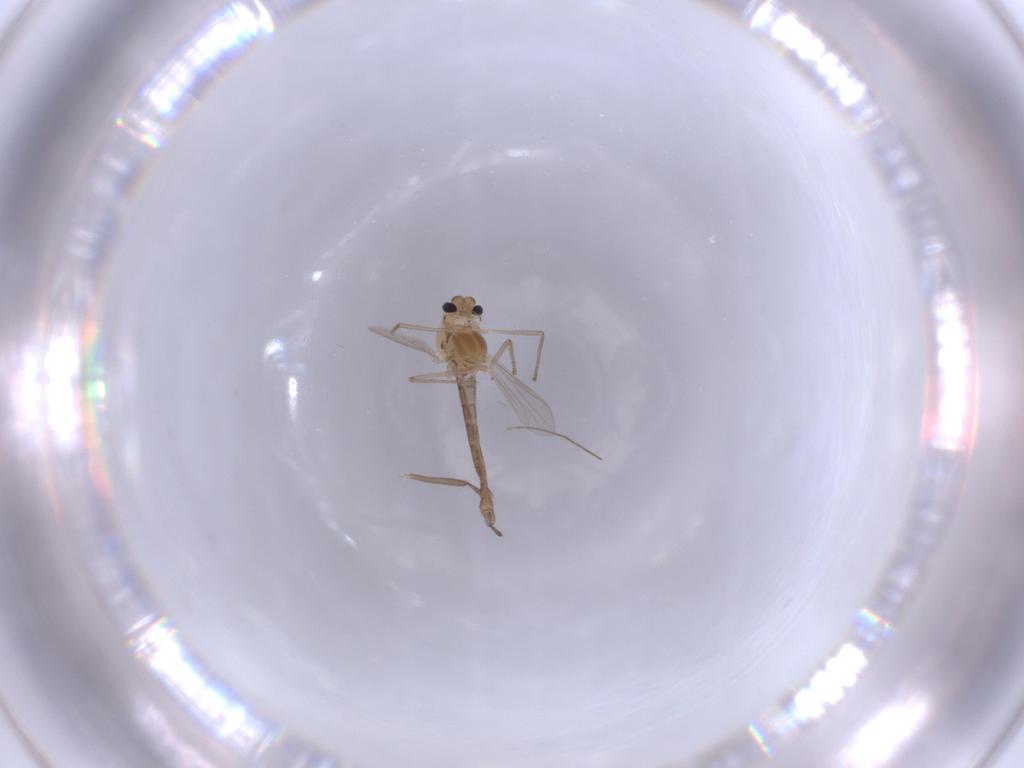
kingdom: Animalia
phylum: Arthropoda
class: Insecta
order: Diptera
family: Chironomidae
